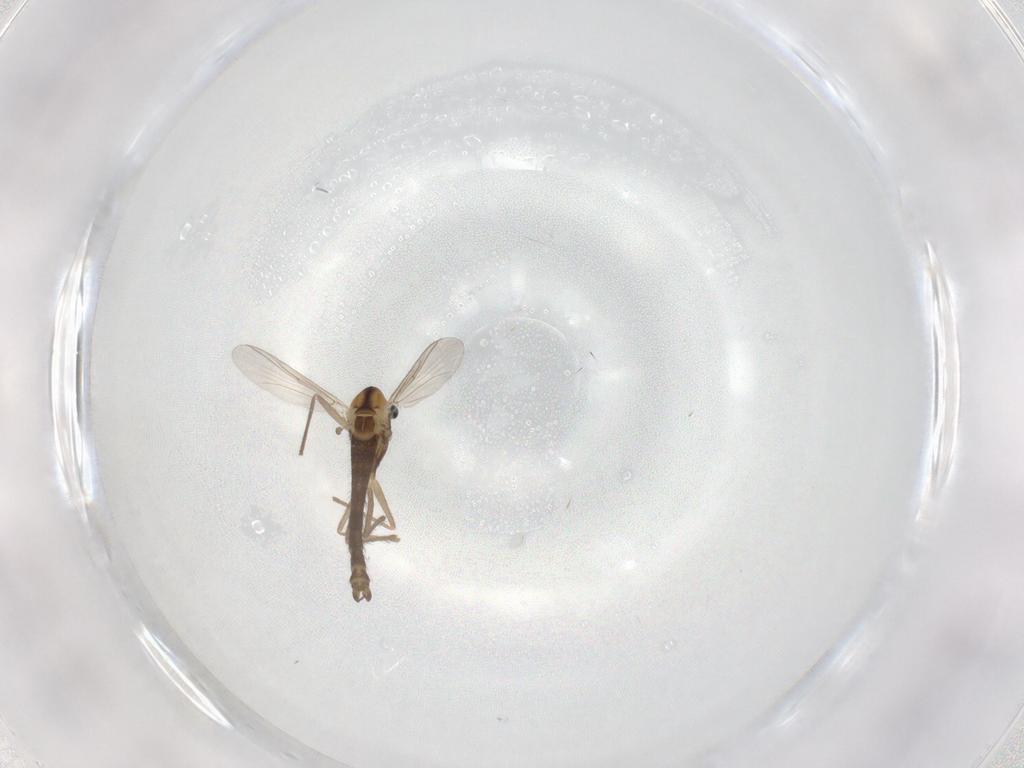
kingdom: Animalia
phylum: Arthropoda
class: Insecta
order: Diptera
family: Chironomidae
